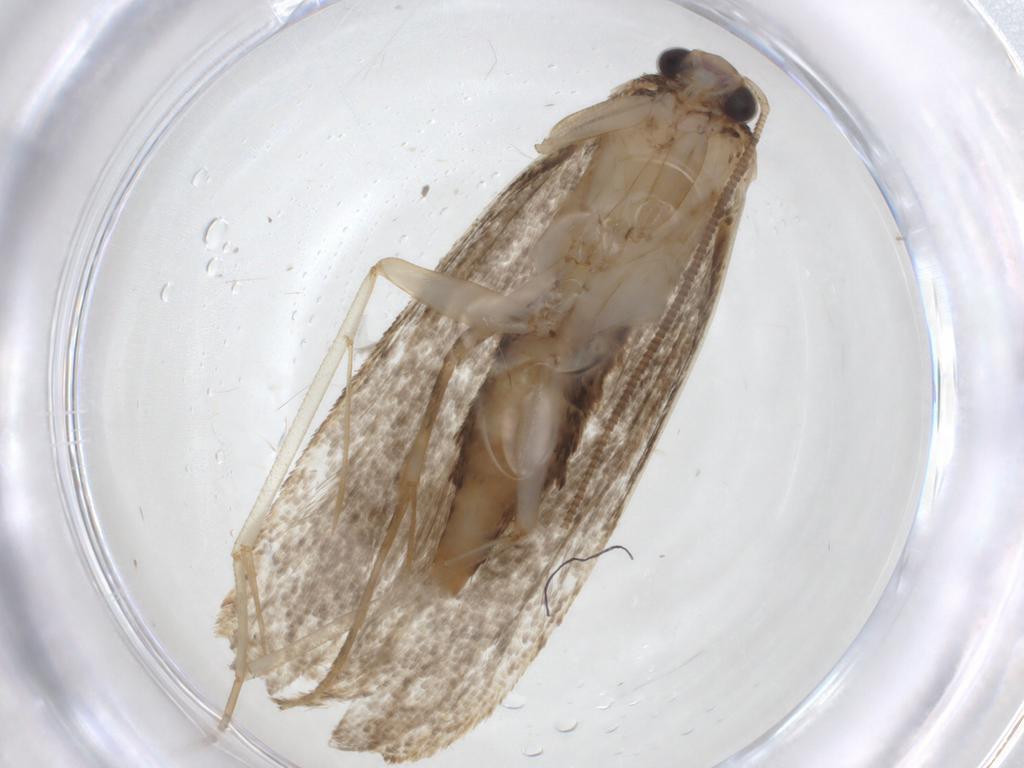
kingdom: Animalia
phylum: Arthropoda
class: Insecta
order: Lepidoptera
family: Tineidae
